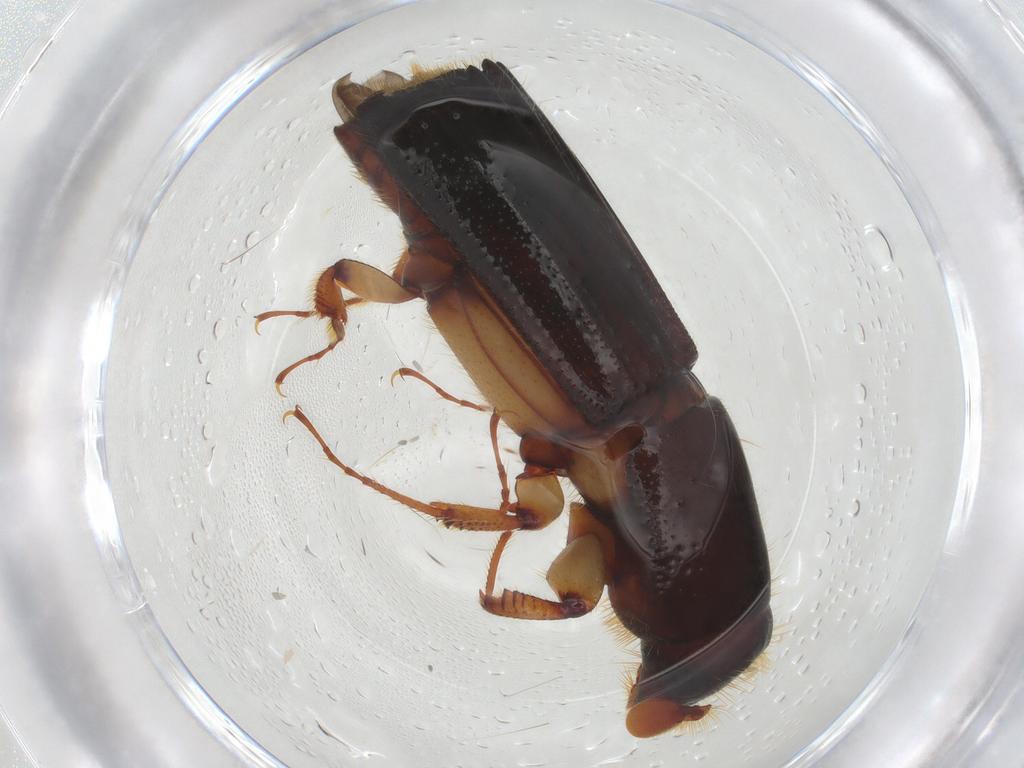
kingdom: Animalia
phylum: Arthropoda
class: Insecta
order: Coleoptera
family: Curculionidae
